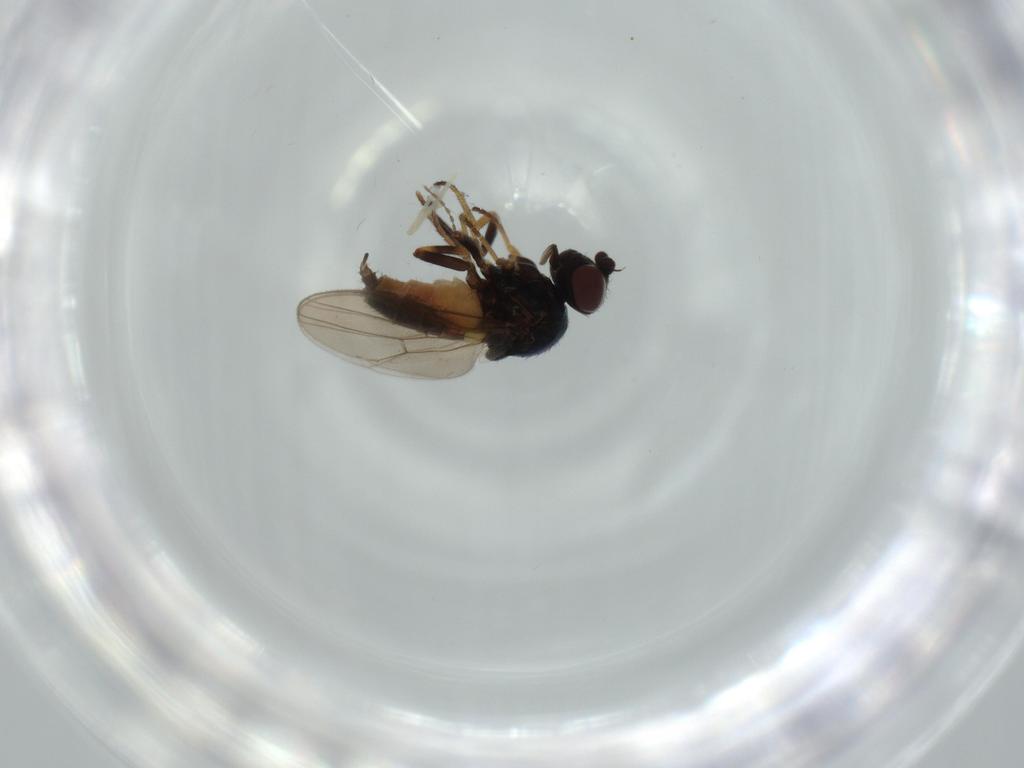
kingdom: Animalia
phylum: Arthropoda
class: Insecta
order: Diptera
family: Chloropidae
